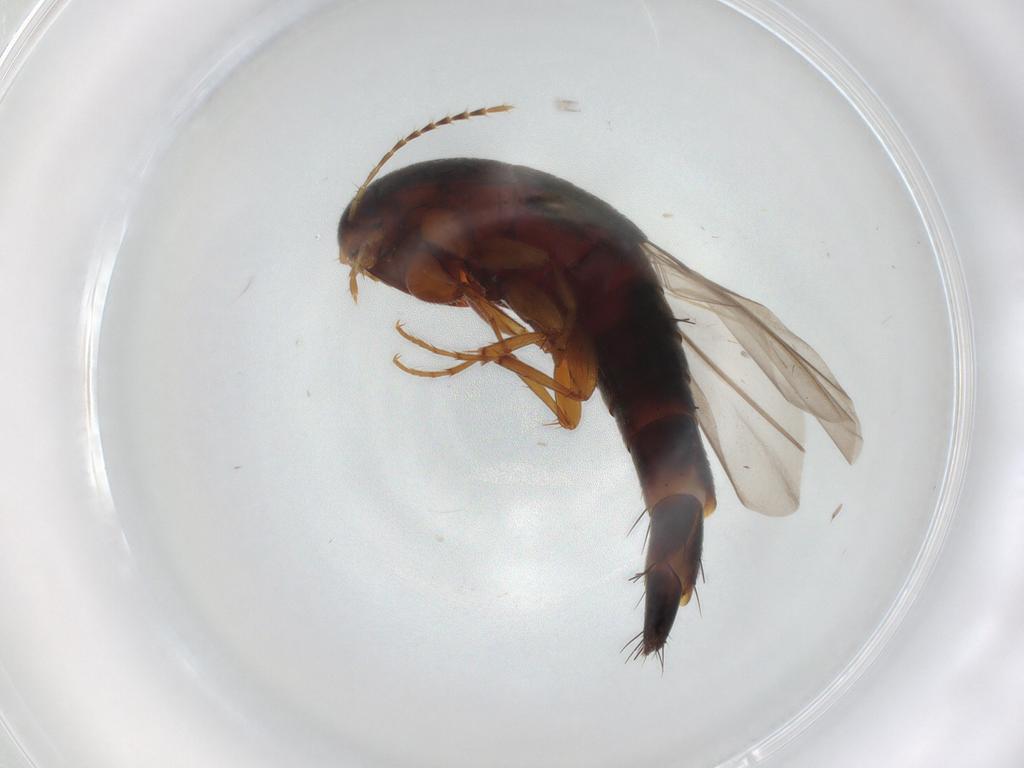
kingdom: Animalia
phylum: Arthropoda
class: Insecta
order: Coleoptera
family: Staphylinidae
